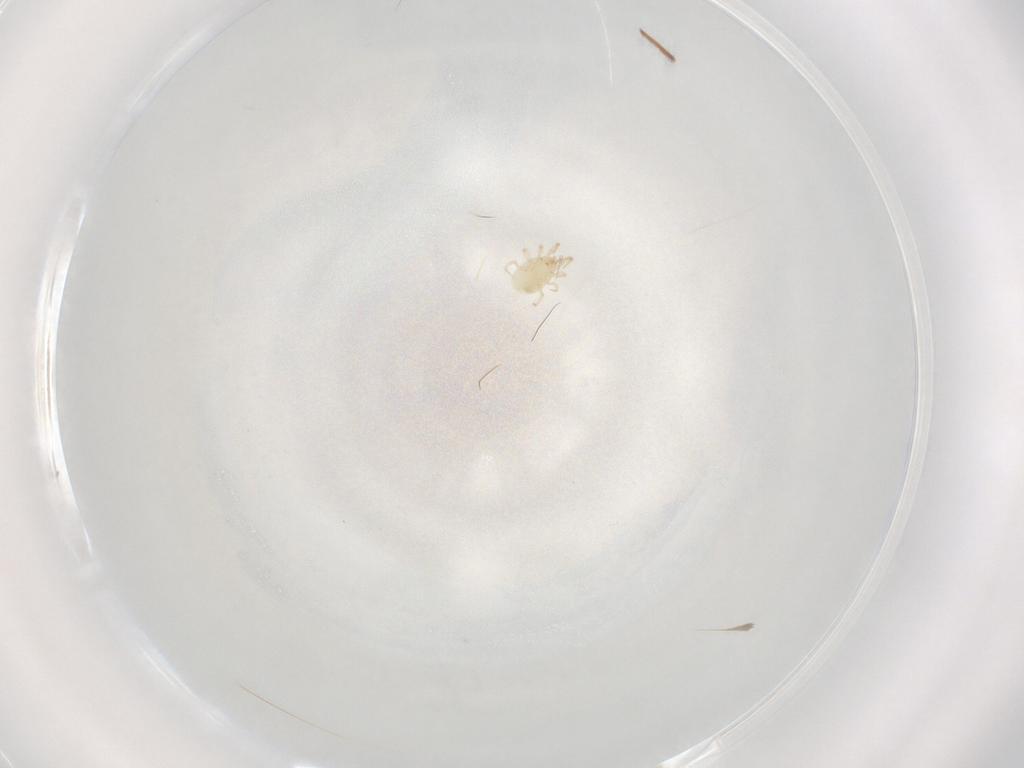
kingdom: Animalia
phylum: Arthropoda
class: Arachnida
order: Mesostigmata
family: Phytoseiidae
